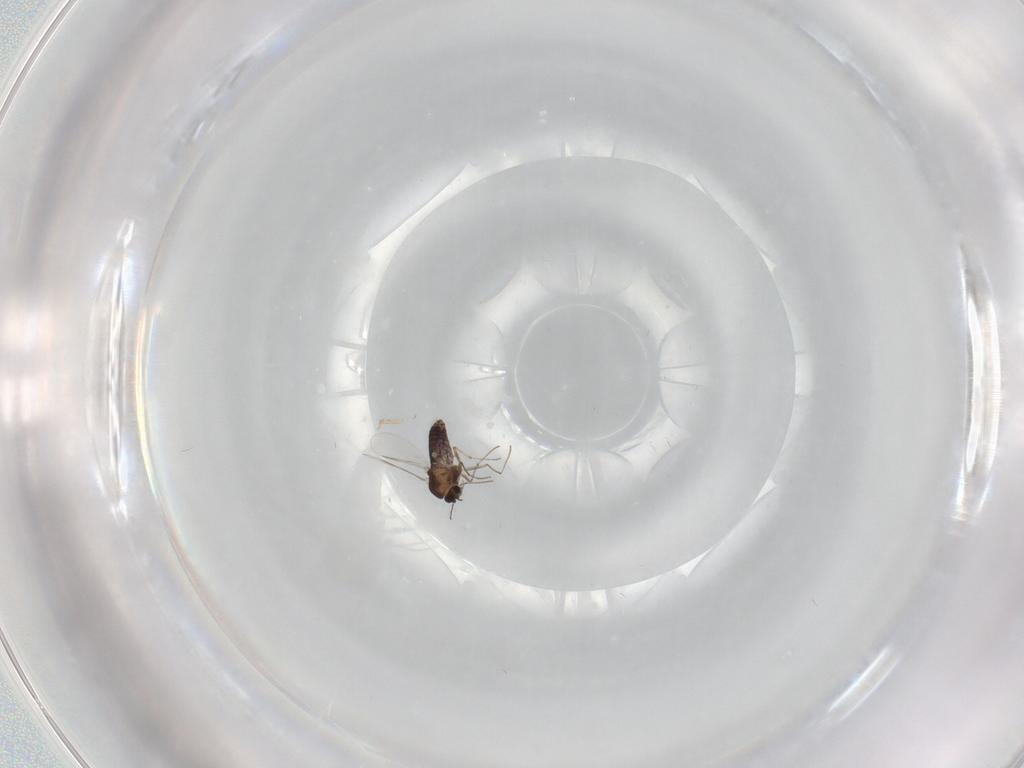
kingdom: Animalia
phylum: Arthropoda
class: Insecta
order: Diptera
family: Chironomidae
